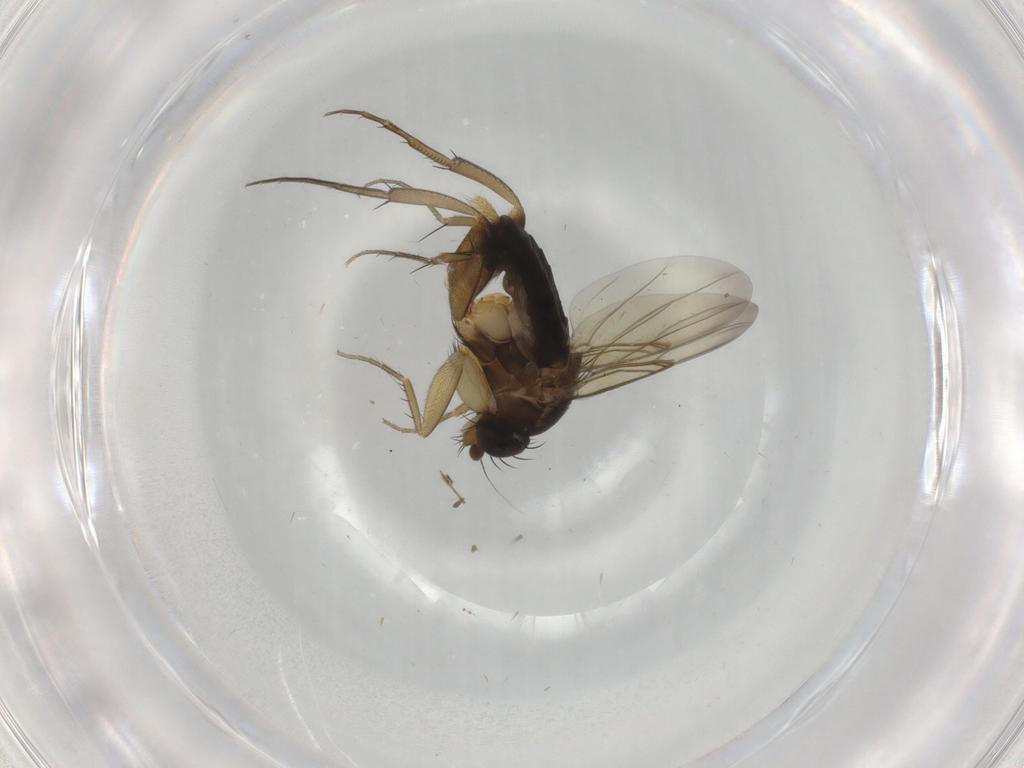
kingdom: Animalia
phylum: Arthropoda
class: Insecta
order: Diptera
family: Phoridae
